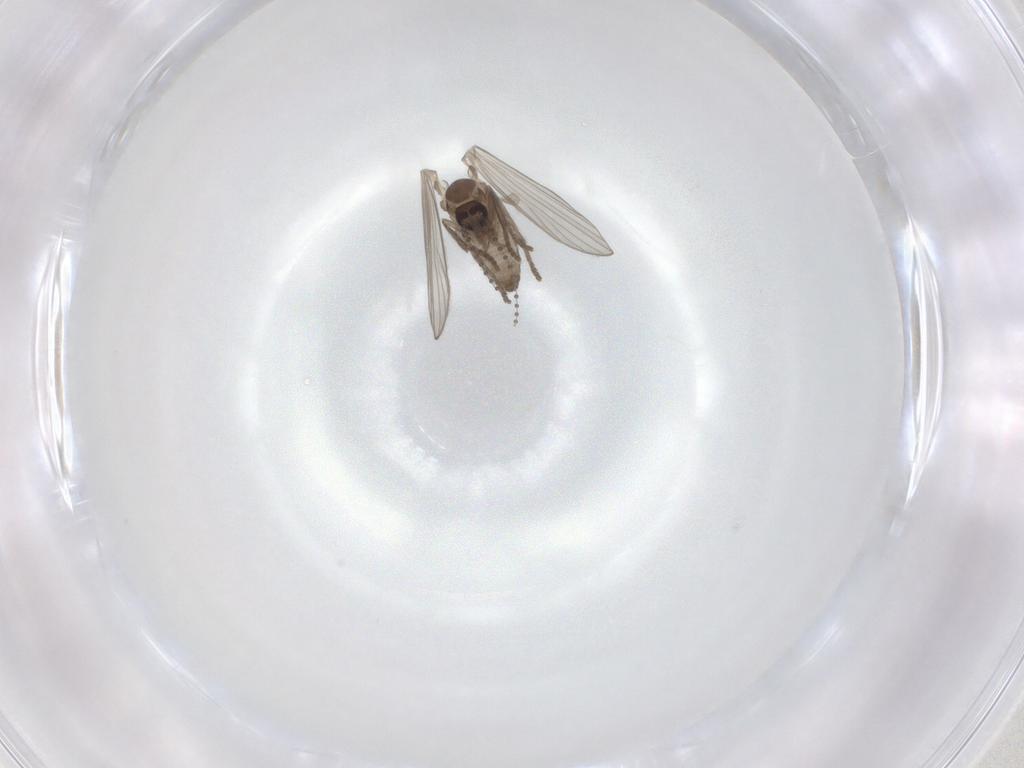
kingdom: Animalia
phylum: Arthropoda
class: Insecta
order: Diptera
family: Psychodidae
